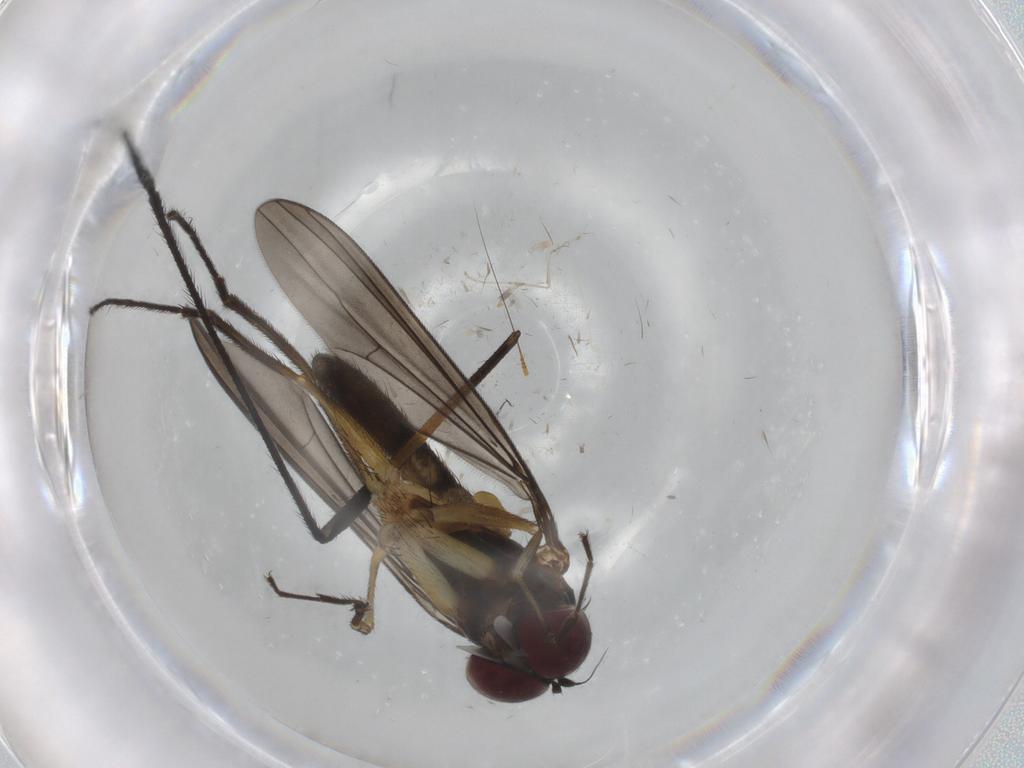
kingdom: Animalia
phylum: Arthropoda
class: Insecta
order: Diptera
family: Limoniidae
